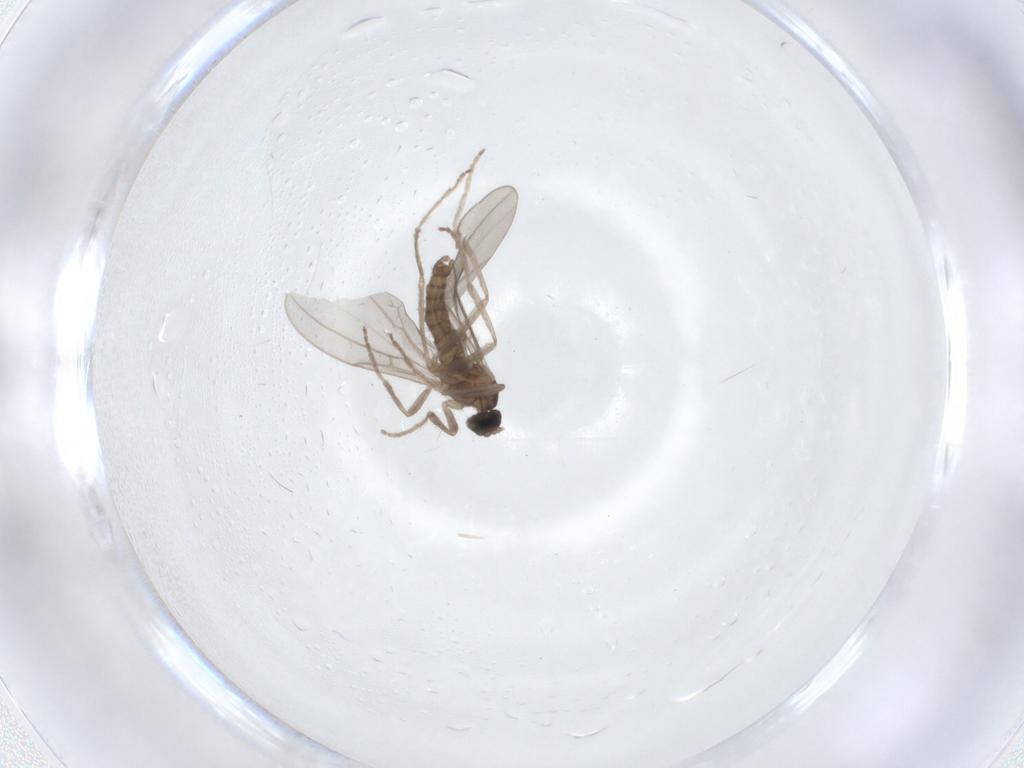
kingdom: Animalia
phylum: Arthropoda
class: Insecta
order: Diptera
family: Cecidomyiidae
